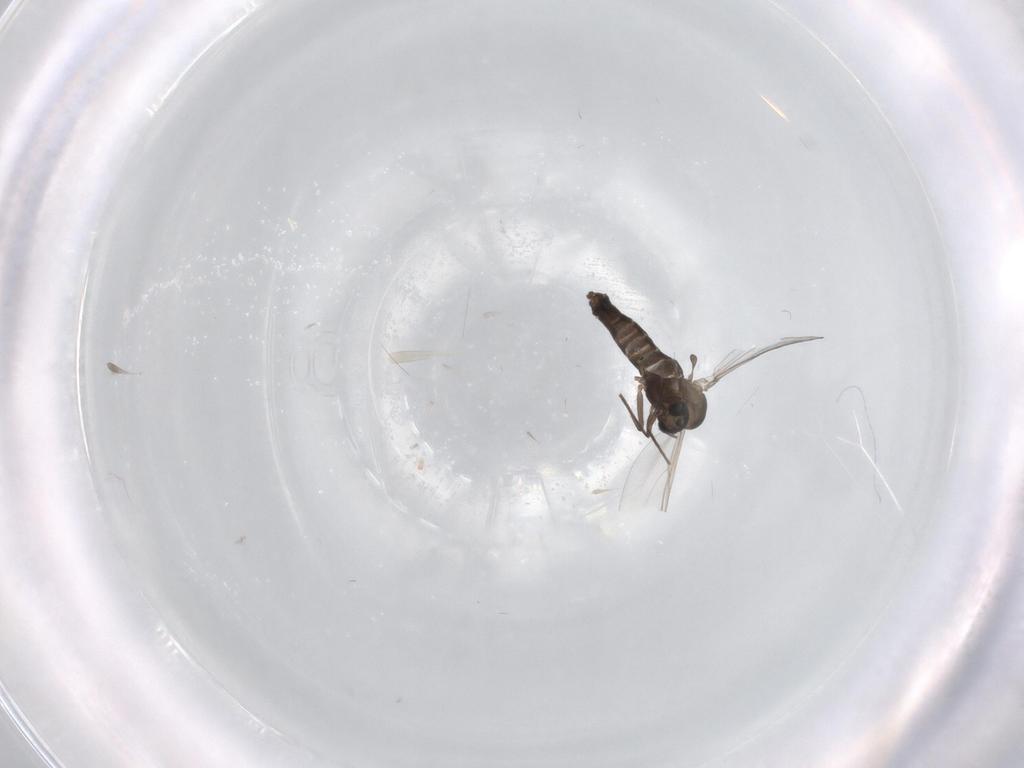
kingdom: Animalia
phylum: Arthropoda
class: Insecta
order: Diptera
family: Chironomidae
